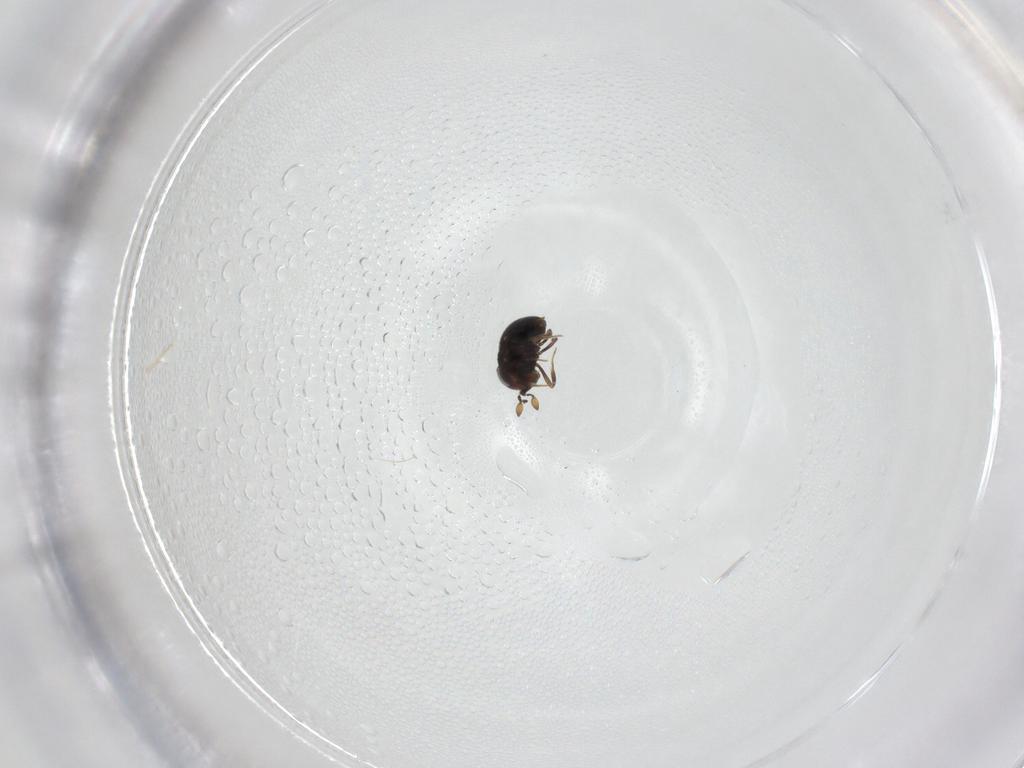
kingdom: Animalia
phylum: Arthropoda
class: Insecta
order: Hymenoptera
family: Scelionidae
